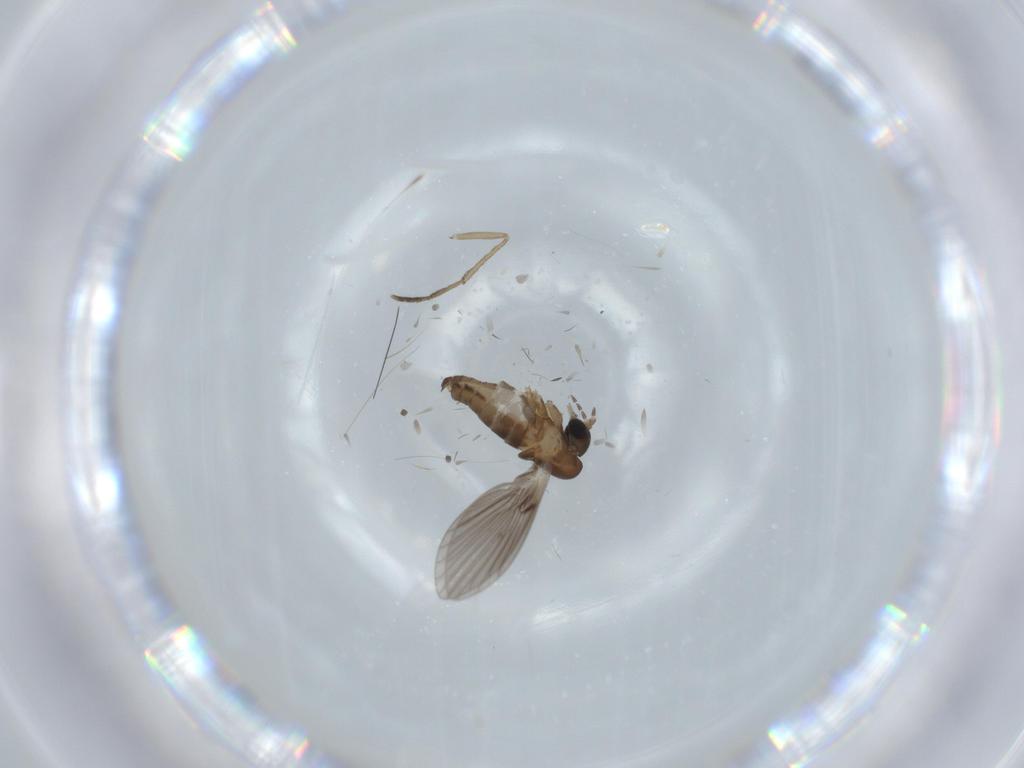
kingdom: Animalia
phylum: Arthropoda
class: Insecta
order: Diptera
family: Psychodidae
